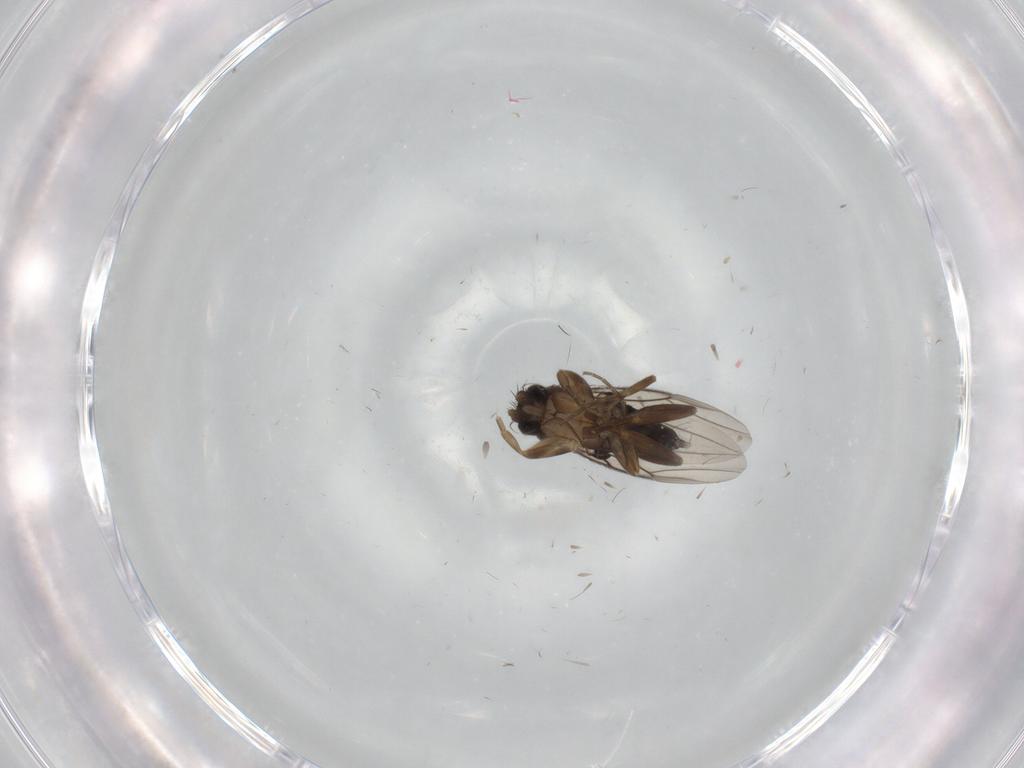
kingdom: Animalia
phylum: Arthropoda
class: Insecta
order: Diptera
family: Phoridae
